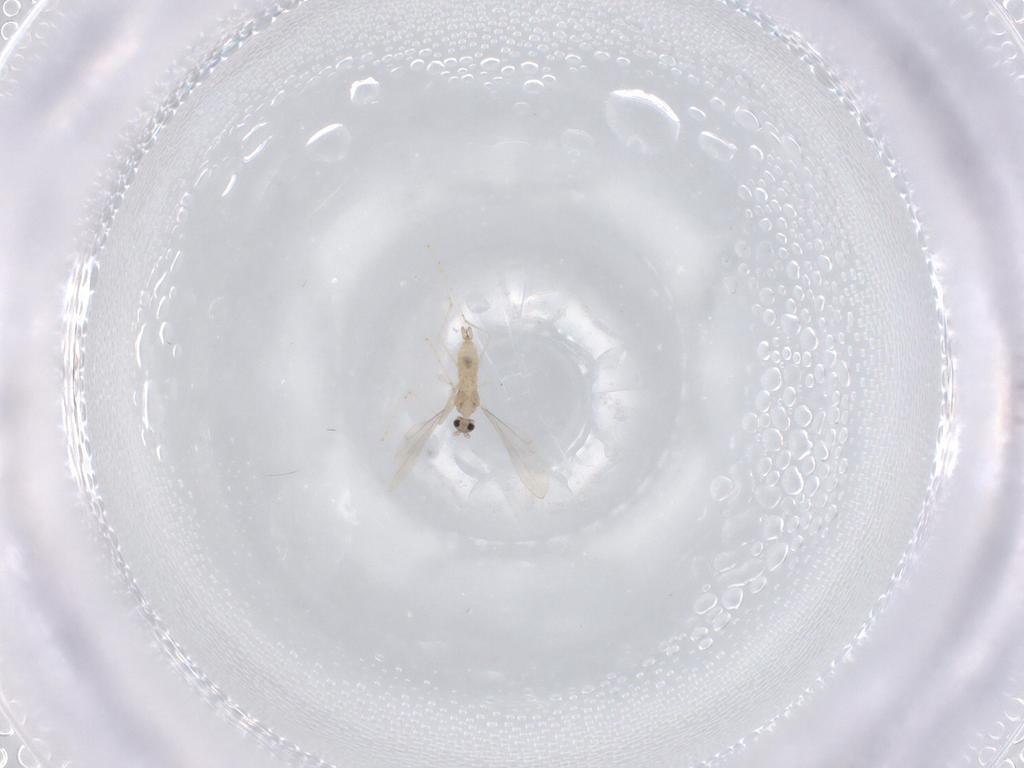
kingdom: Animalia
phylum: Arthropoda
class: Insecta
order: Diptera
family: Cecidomyiidae
